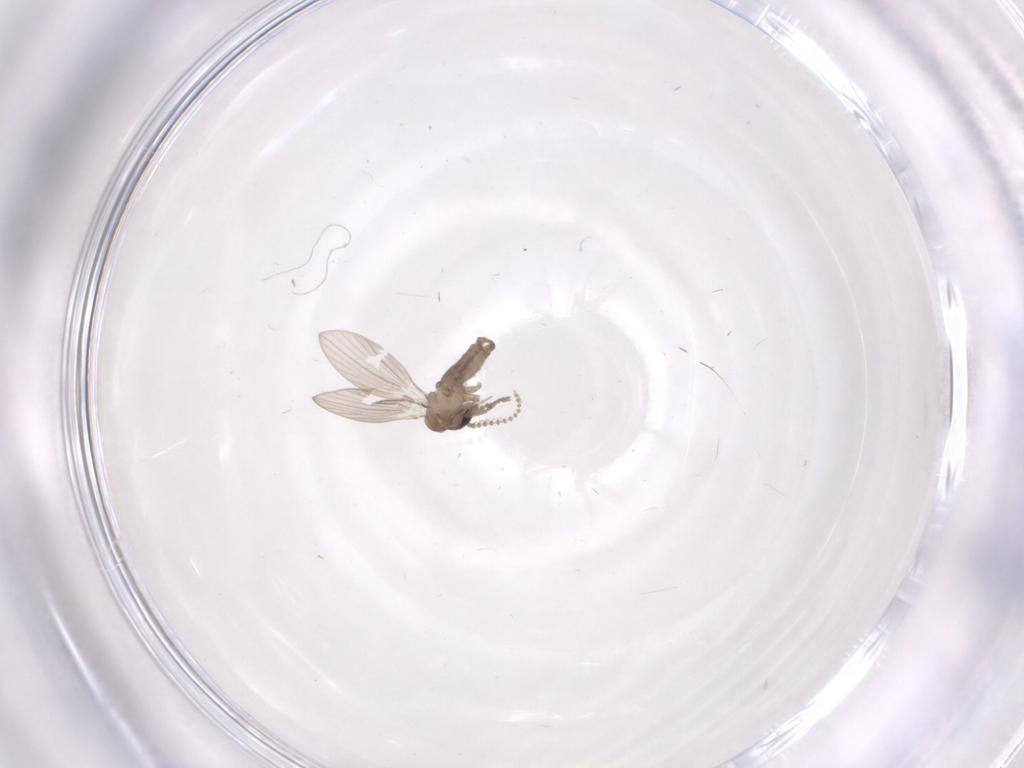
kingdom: Animalia
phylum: Arthropoda
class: Insecta
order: Diptera
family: Psychodidae
